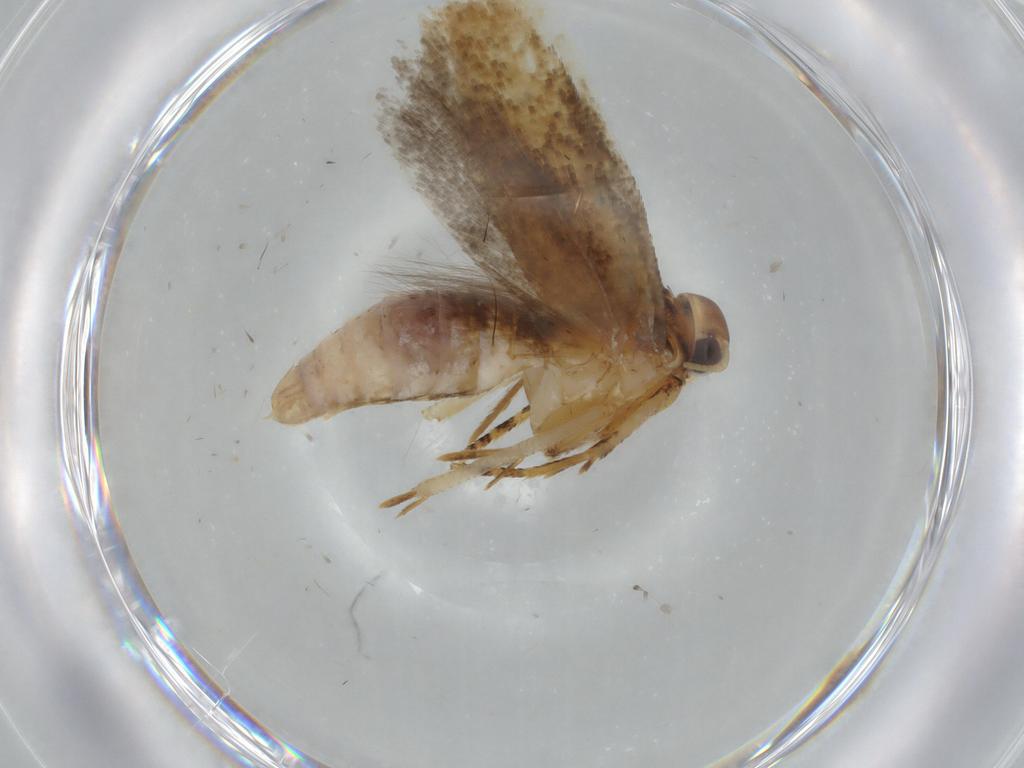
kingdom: Animalia
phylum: Arthropoda
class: Insecta
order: Lepidoptera
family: Gelechiidae
